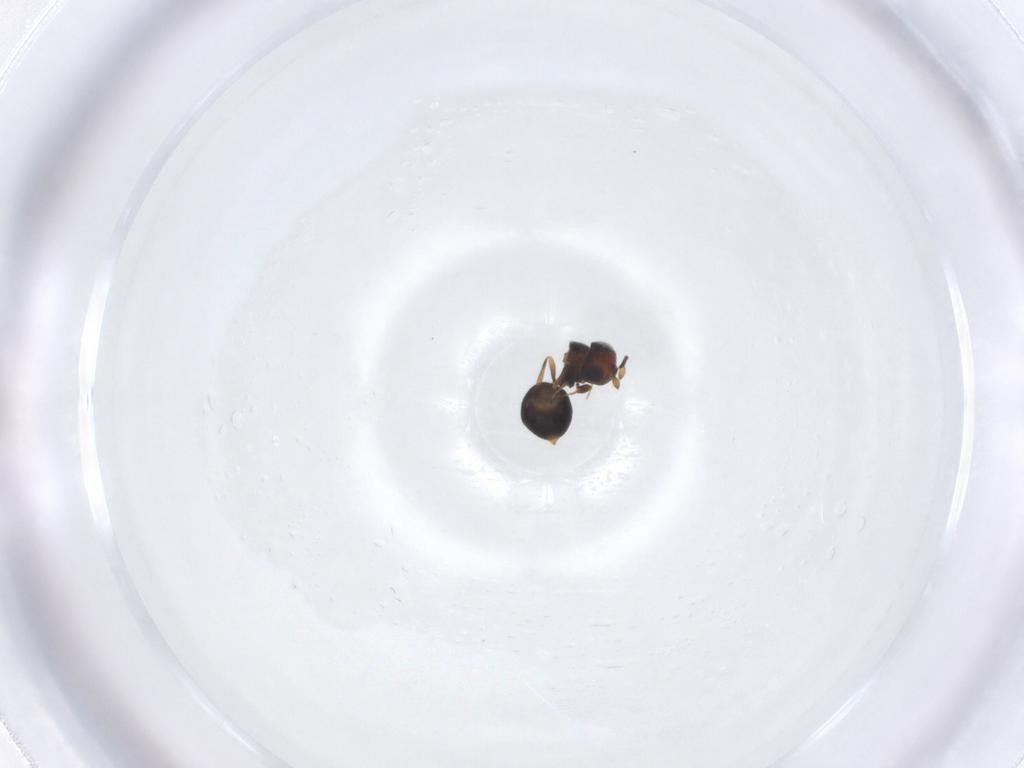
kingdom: Animalia
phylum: Arthropoda
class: Insecta
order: Hymenoptera
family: Scelionidae
